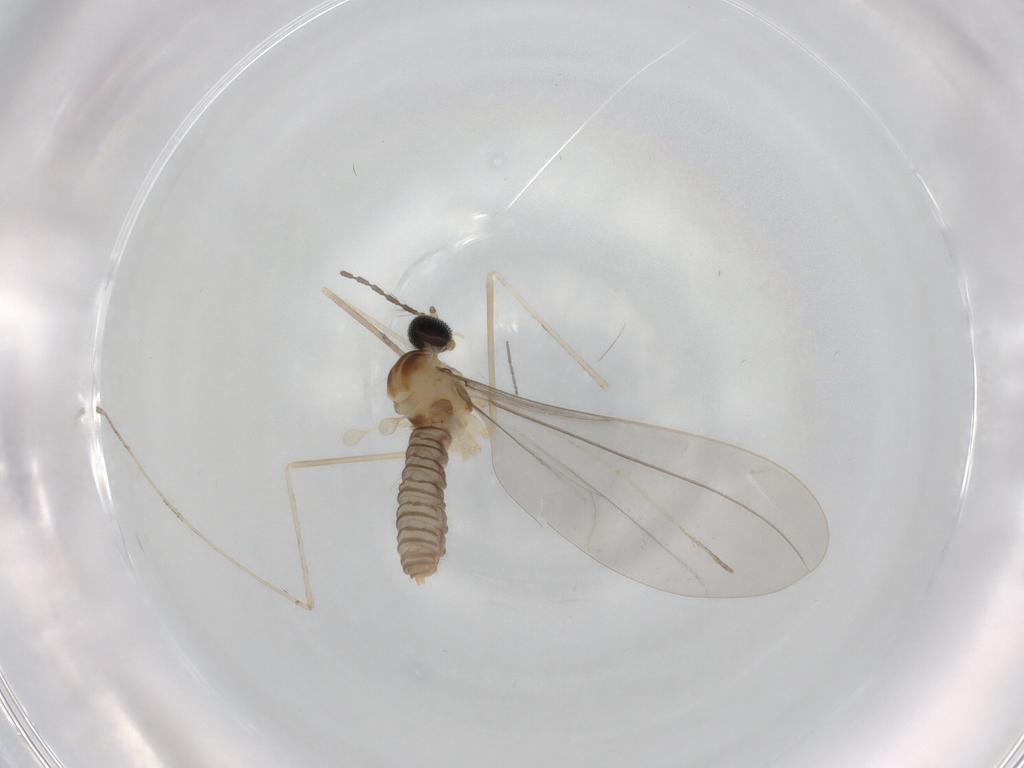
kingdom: Animalia
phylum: Arthropoda
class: Insecta
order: Diptera
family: Cecidomyiidae
